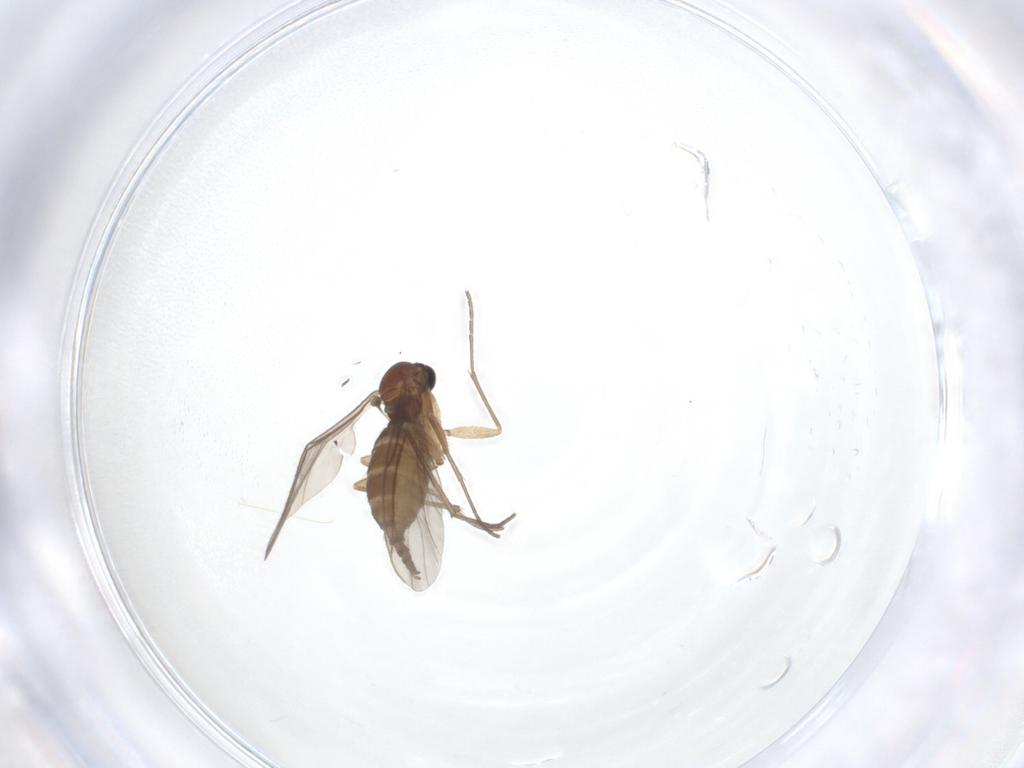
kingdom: Animalia
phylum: Arthropoda
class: Insecta
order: Diptera
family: Sciaridae
